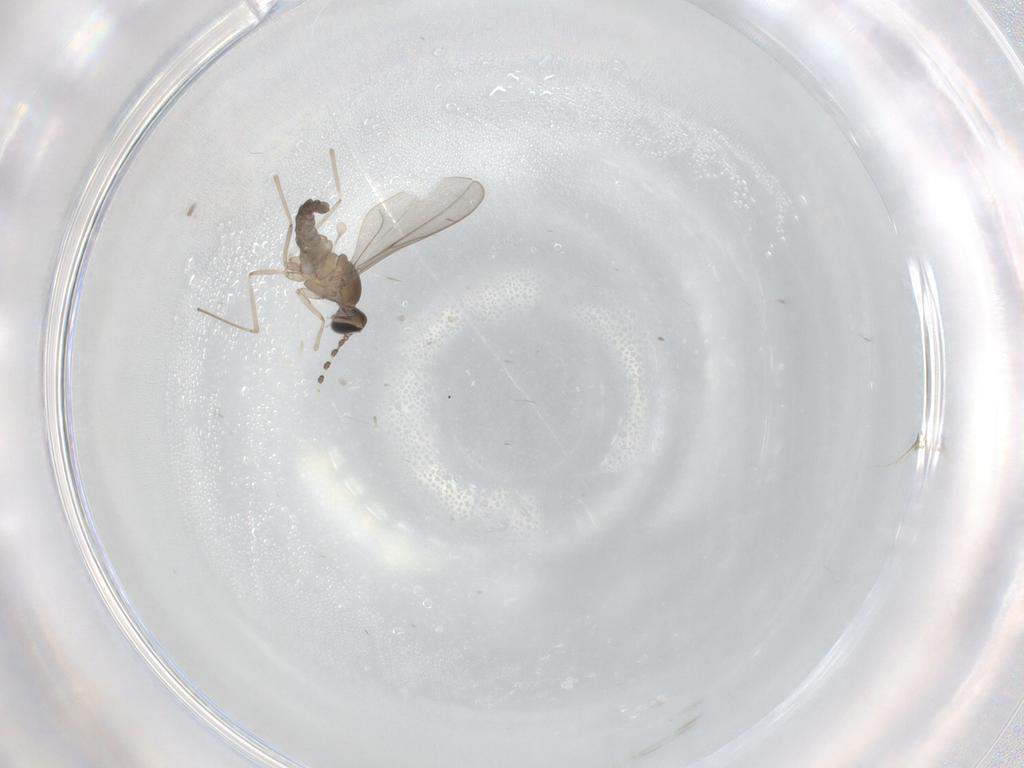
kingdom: Animalia
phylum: Arthropoda
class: Insecta
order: Diptera
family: Cecidomyiidae
